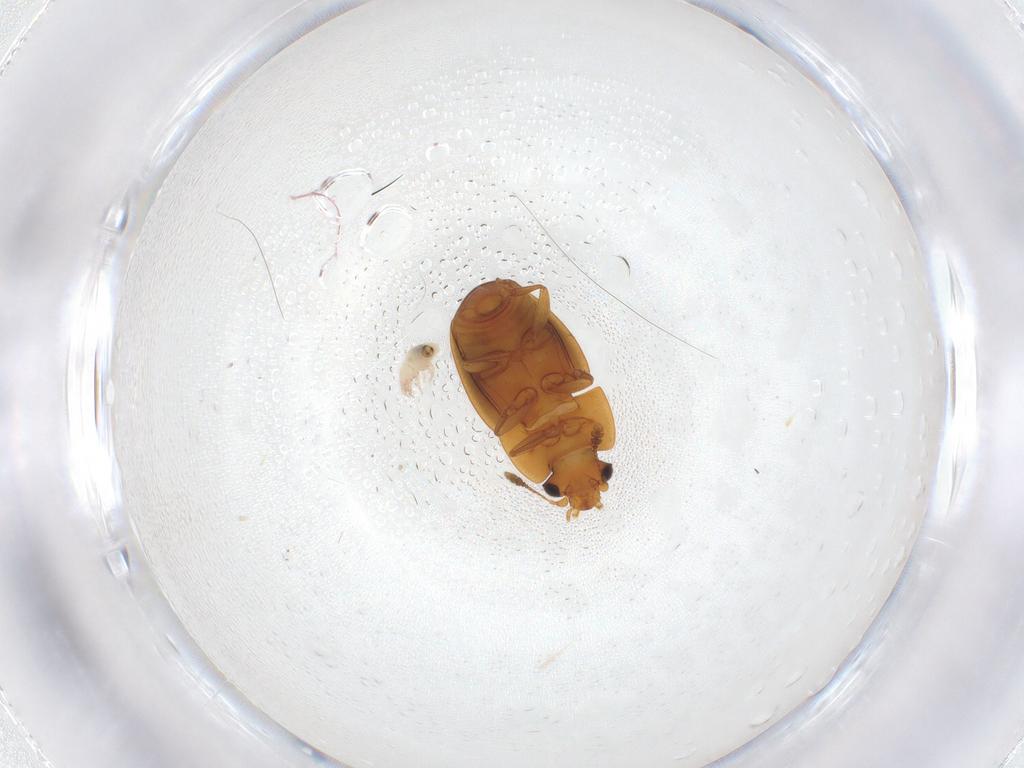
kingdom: Animalia
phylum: Arthropoda
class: Insecta
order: Coleoptera
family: Nitidulidae
